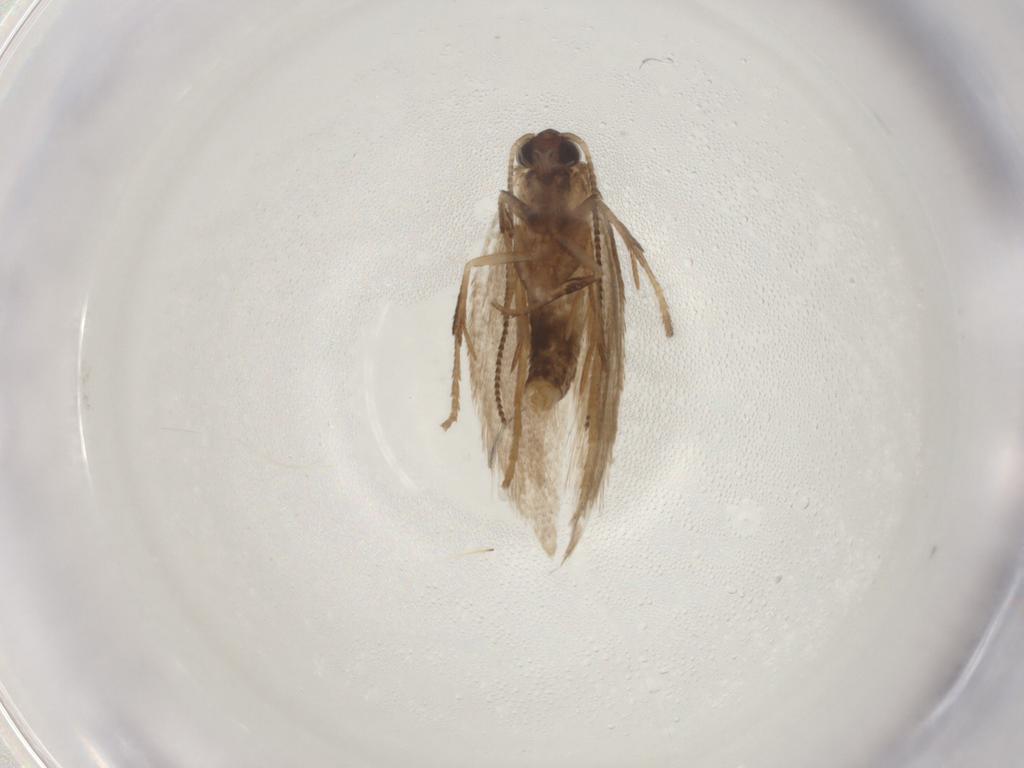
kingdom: Animalia
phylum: Arthropoda
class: Insecta
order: Lepidoptera
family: Nepticulidae
